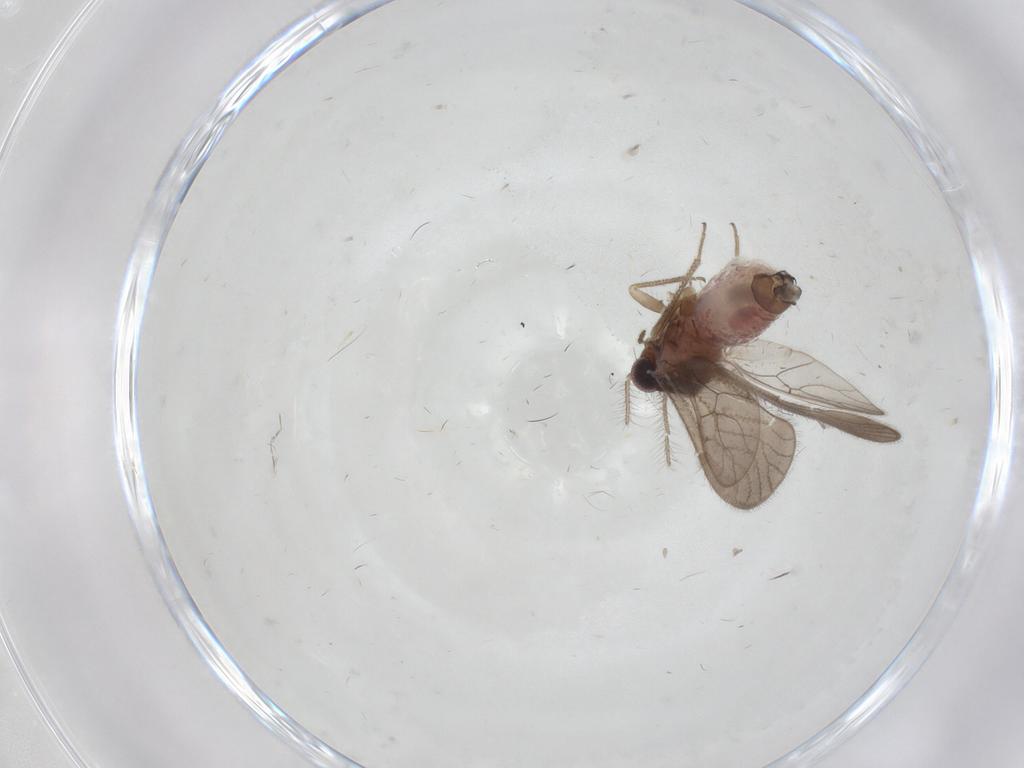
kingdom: Animalia
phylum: Arthropoda
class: Insecta
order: Psocodea
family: Pseudocaeciliidae
